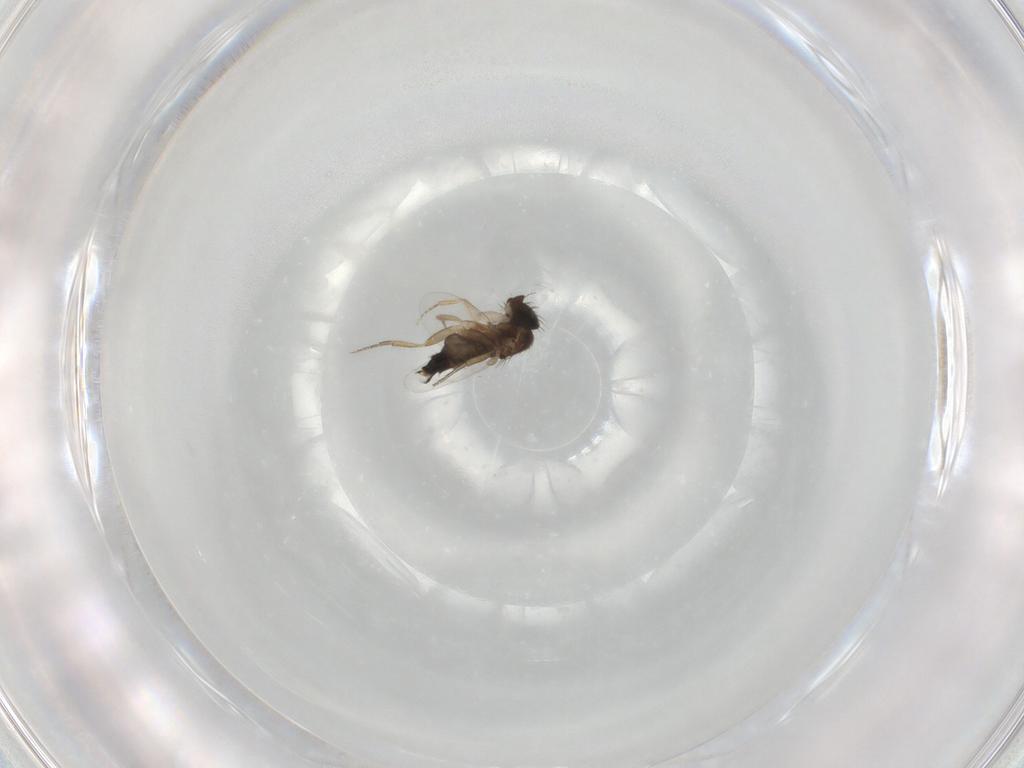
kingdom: Animalia
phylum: Arthropoda
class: Insecta
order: Diptera
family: Phoridae
